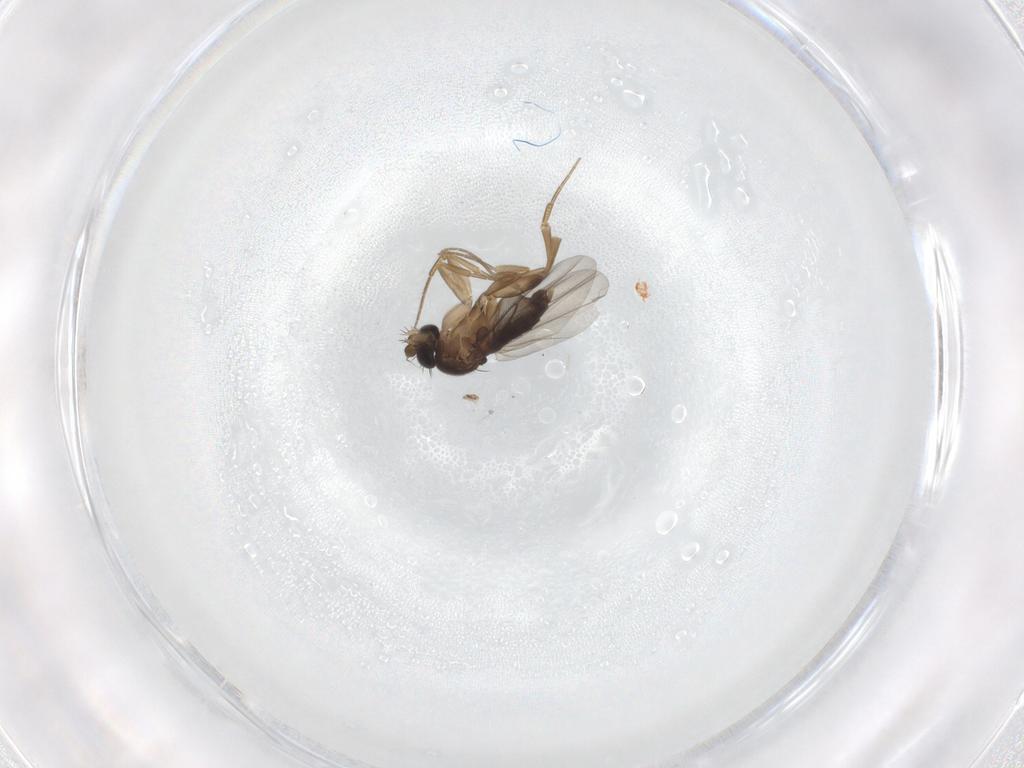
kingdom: Animalia
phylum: Arthropoda
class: Insecta
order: Diptera
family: Phoridae
